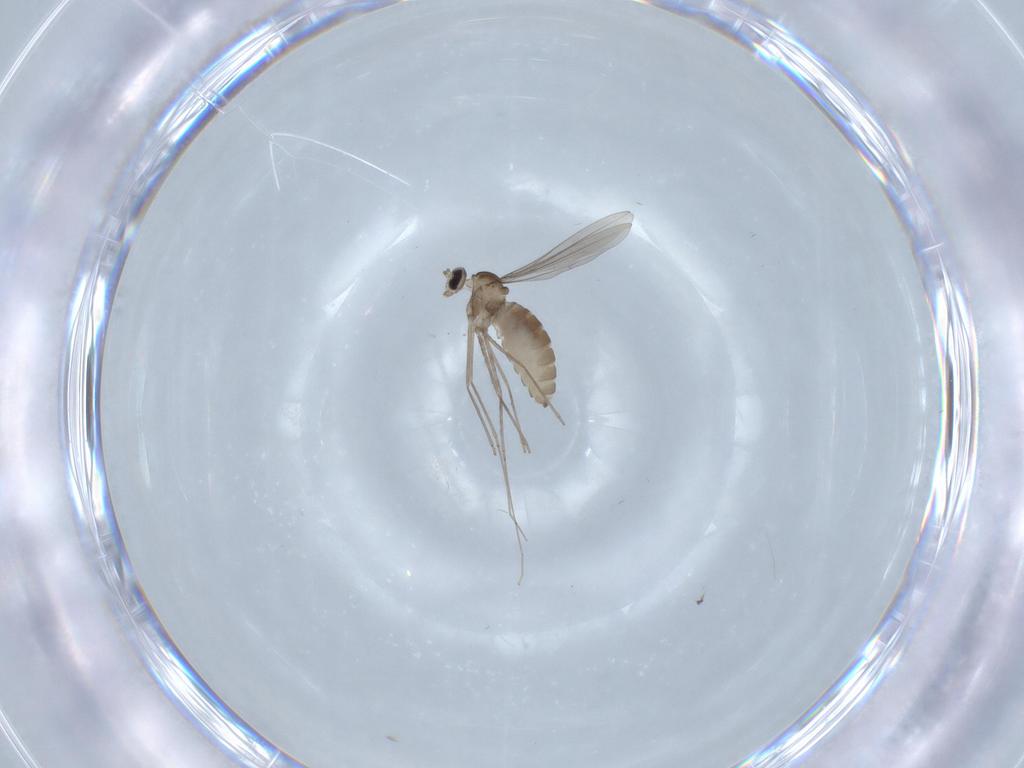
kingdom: Animalia
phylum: Arthropoda
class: Insecta
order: Diptera
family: Cecidomyiidae
